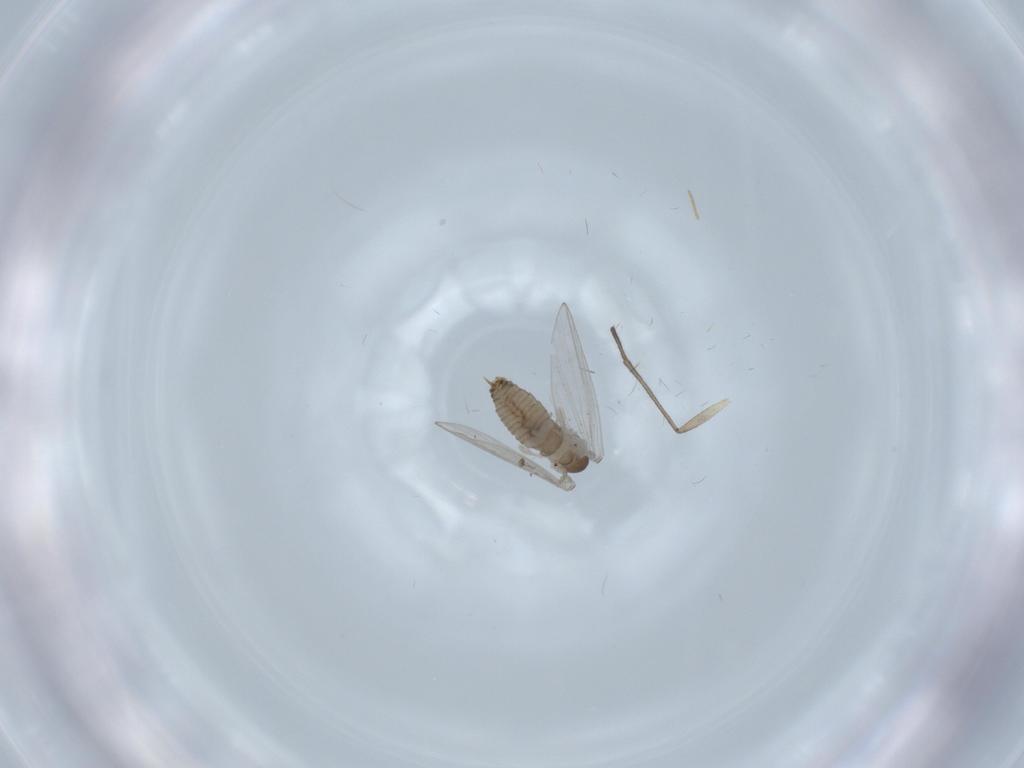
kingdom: Animalia
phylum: Arthropoda
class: Insecta
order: Diptera
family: Psychodidae
